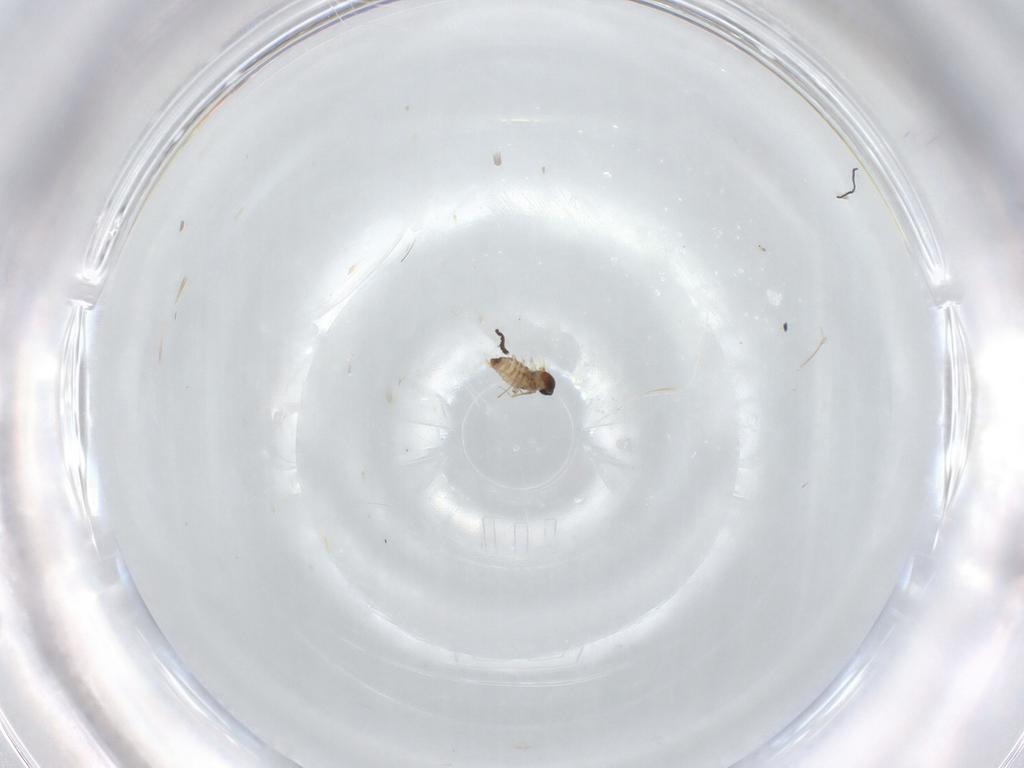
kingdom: Animalia
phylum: Arthropoda
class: Insecta
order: Diptera
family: Cecidomyiidae
